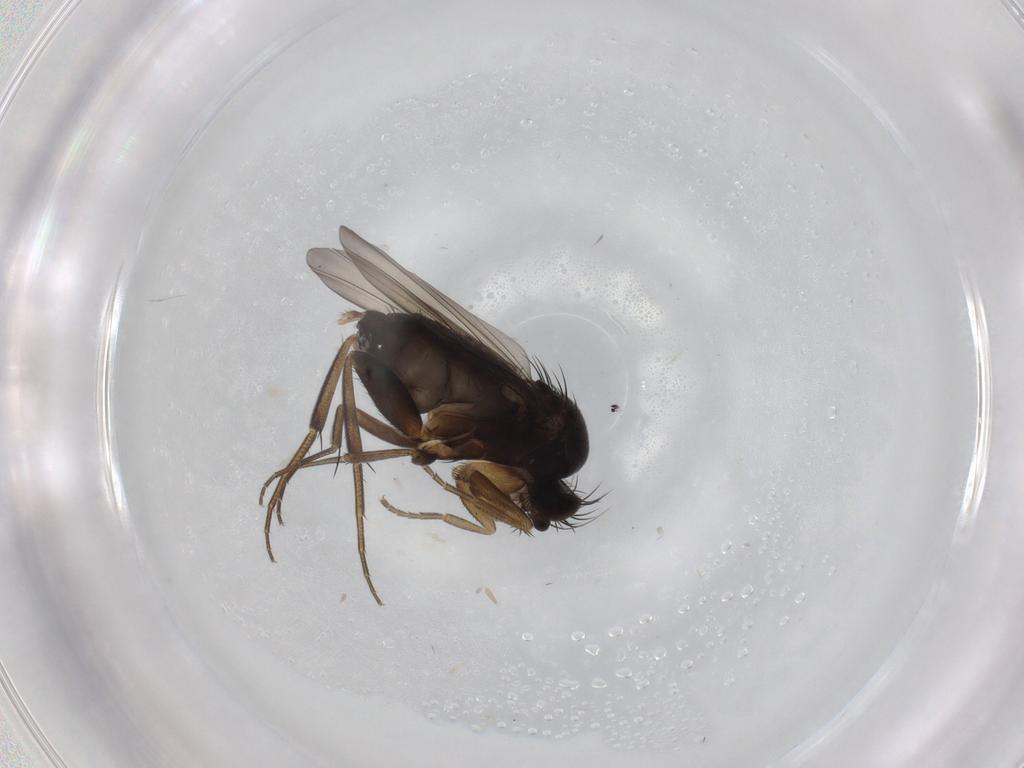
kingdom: Animalia
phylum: Arthropoda
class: Insecta
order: Diptera
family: Phoridae
